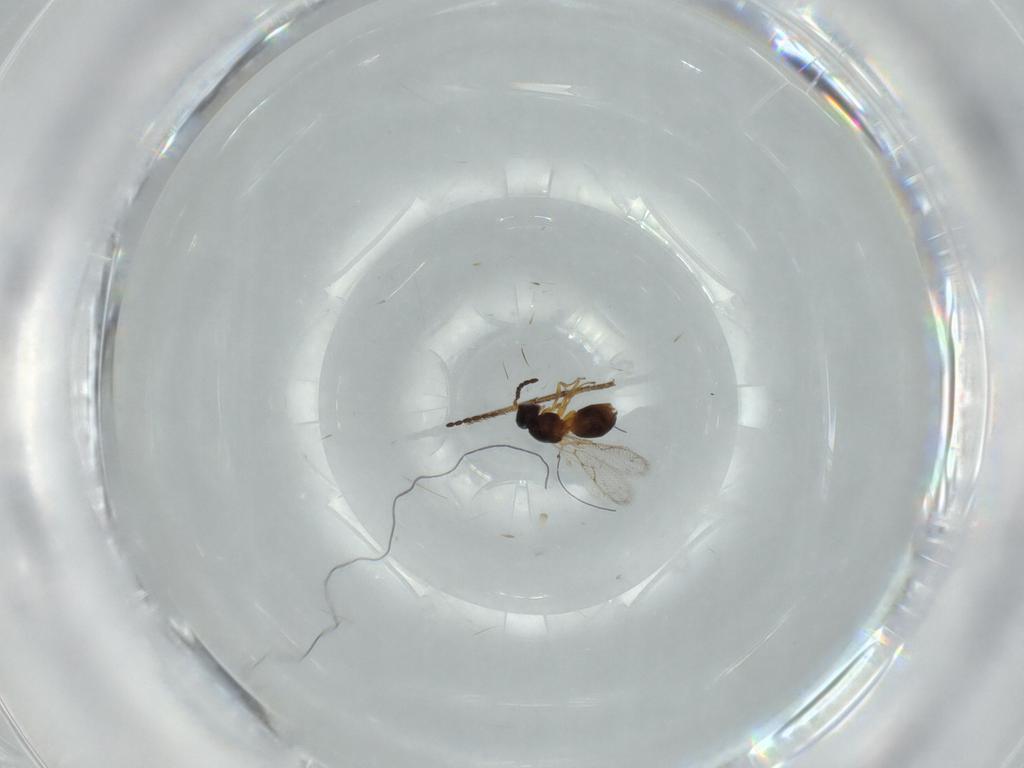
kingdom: Animalia
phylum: Arthropoda
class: Insecta
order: Hymenoptera
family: Figitidae
